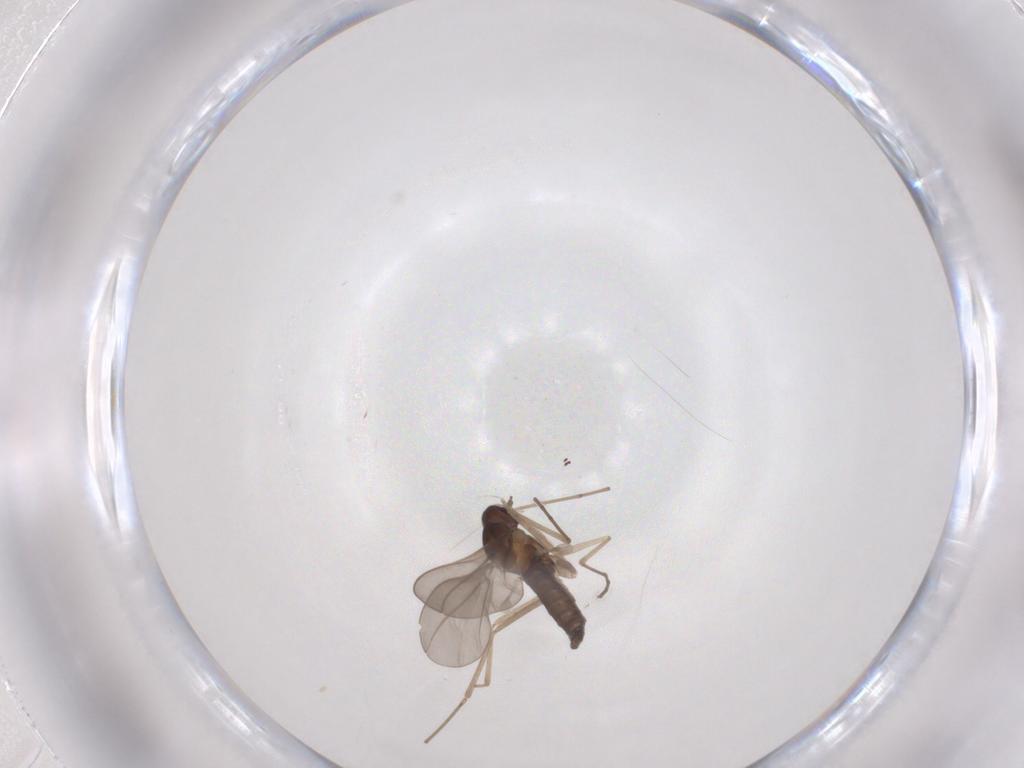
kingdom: Animalia
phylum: Arthropoda
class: Insecta
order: Diptera
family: Cecidomyiidae
